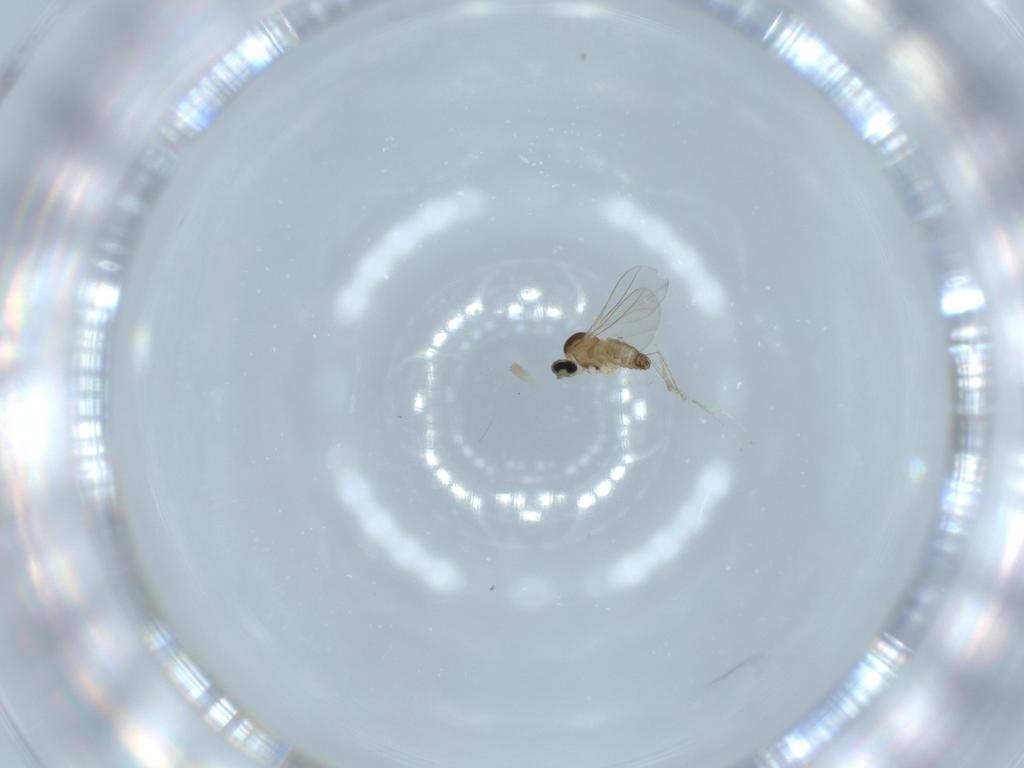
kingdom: Animalia
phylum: Arthropoda
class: Insecta
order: Diptera
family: Cecidomyiidae
